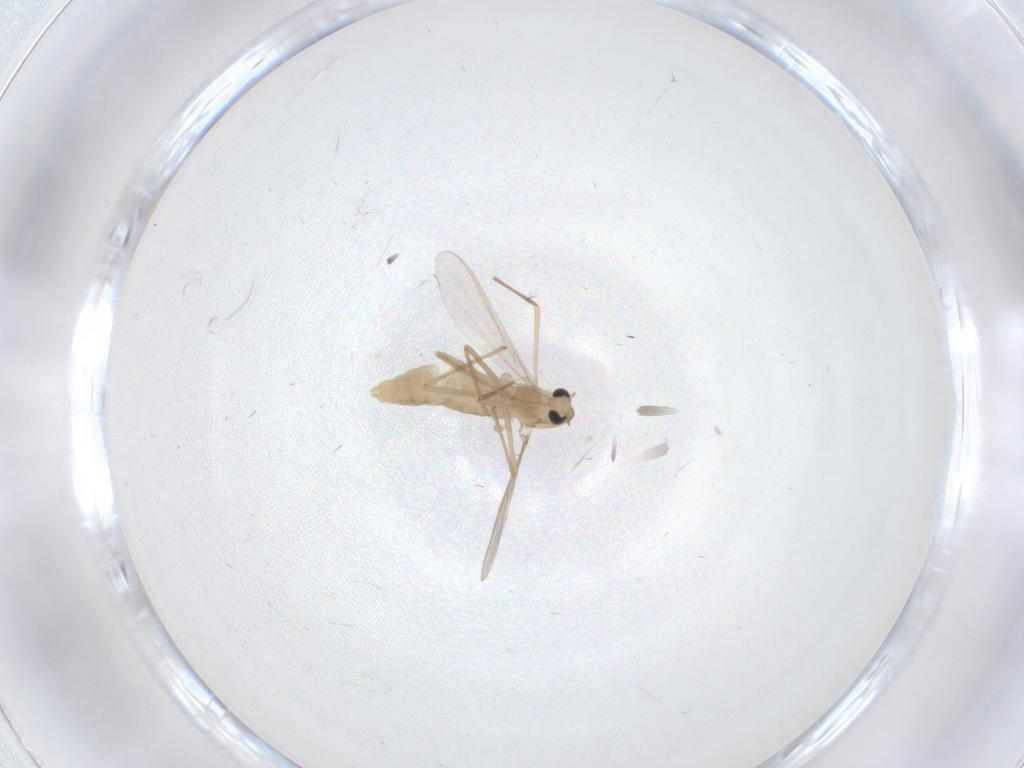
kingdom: Animalia
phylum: Arthropoda
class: Insecta
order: Diptera
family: Chironomidae
